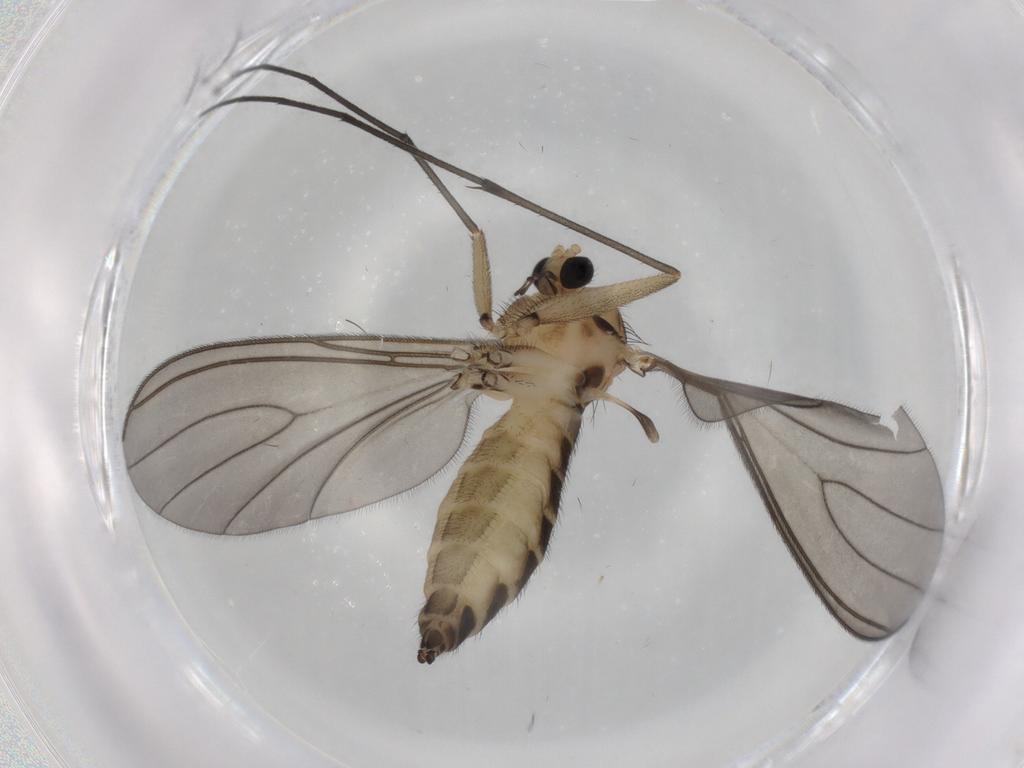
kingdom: Animalia
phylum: Arthropoda
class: Insecta
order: Diptera
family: Sciaridae
